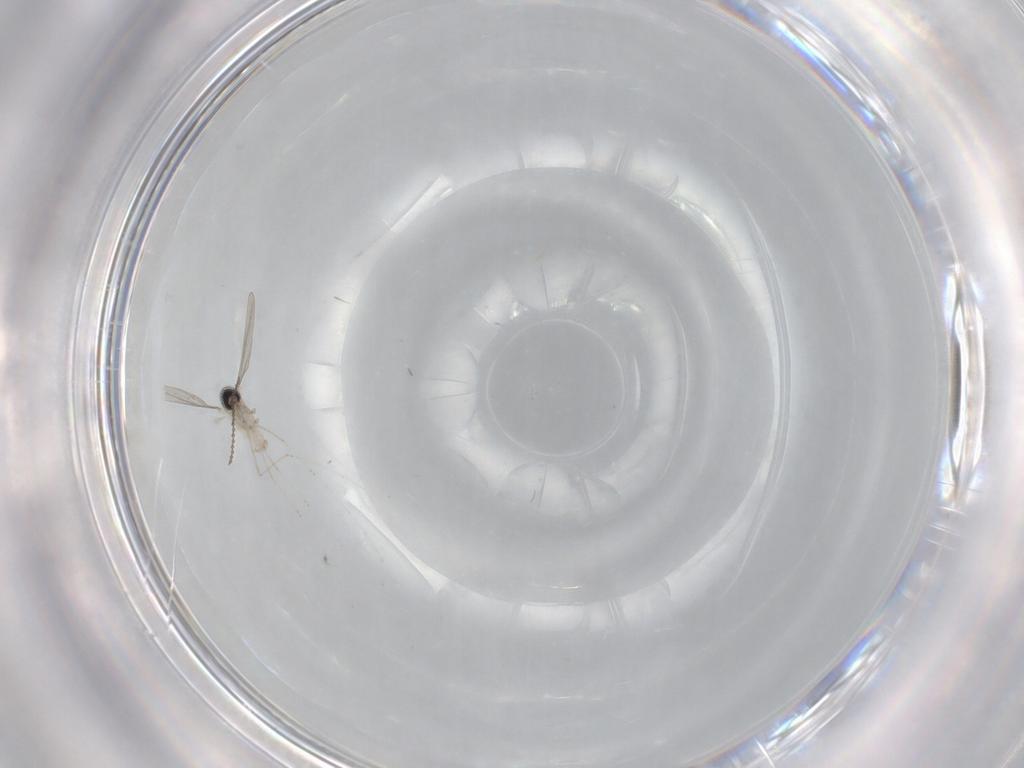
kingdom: Animalia
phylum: Arthropoda
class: Insecta
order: Diptera
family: Cecidomyiidae
